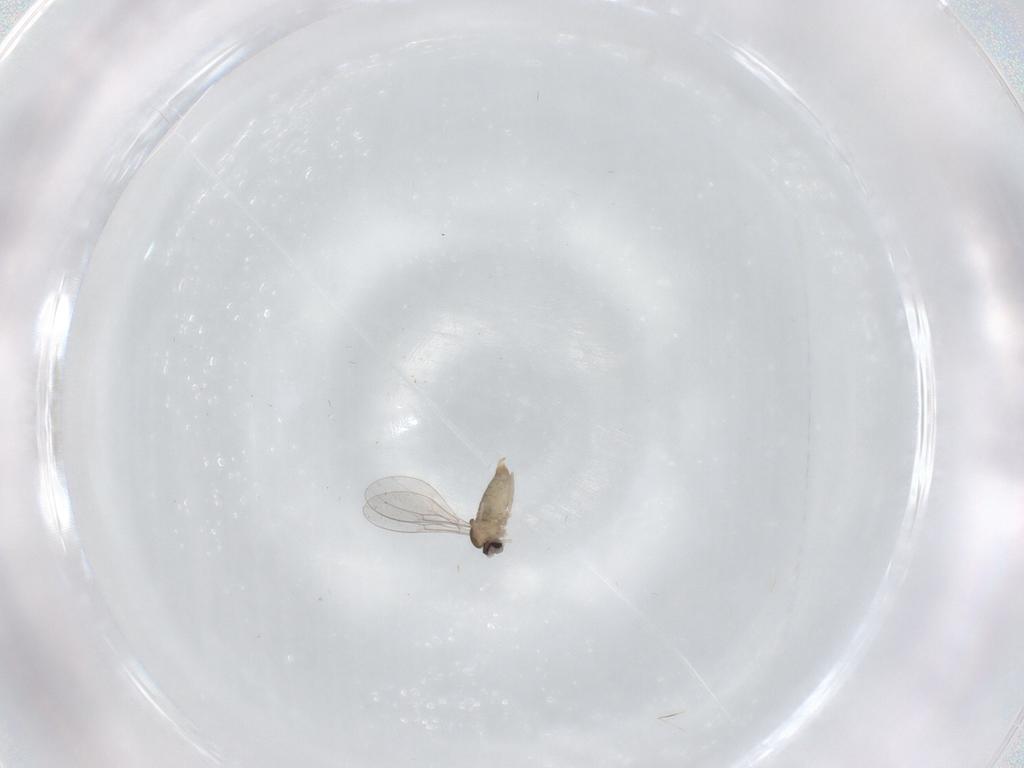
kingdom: Animalia
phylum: Arthropoda
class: Insecta
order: Diptera
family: Cecidomyiidae
